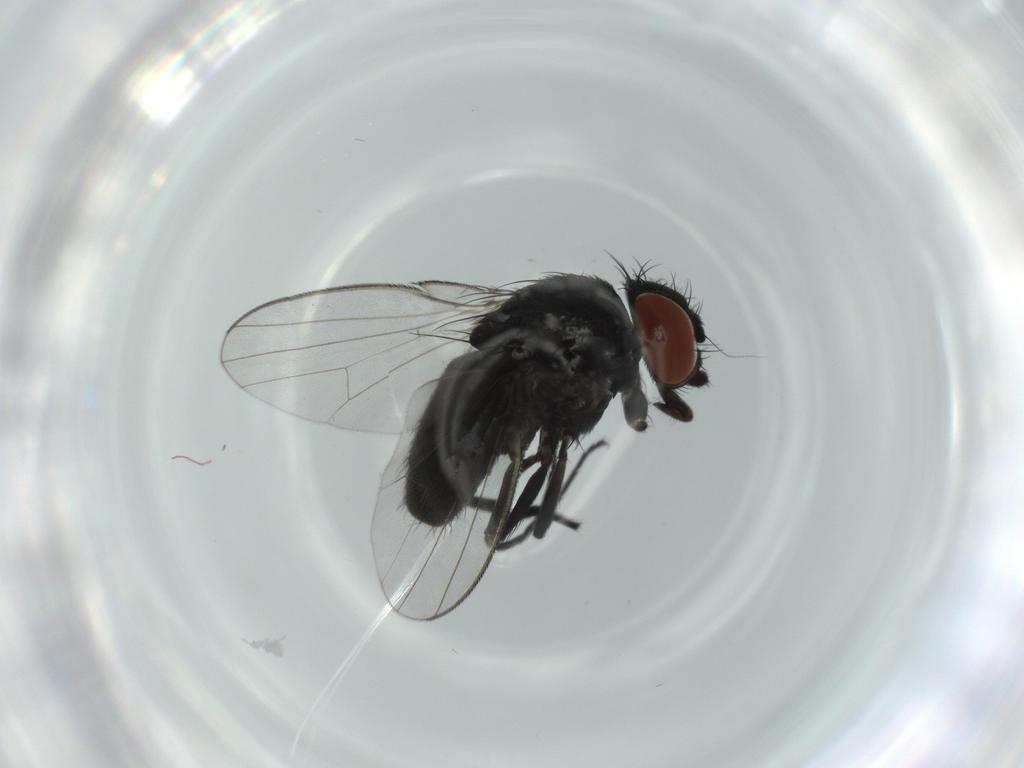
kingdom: Animalia
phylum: Arthropoda
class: Insecta
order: Diptera
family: Milichiidae
